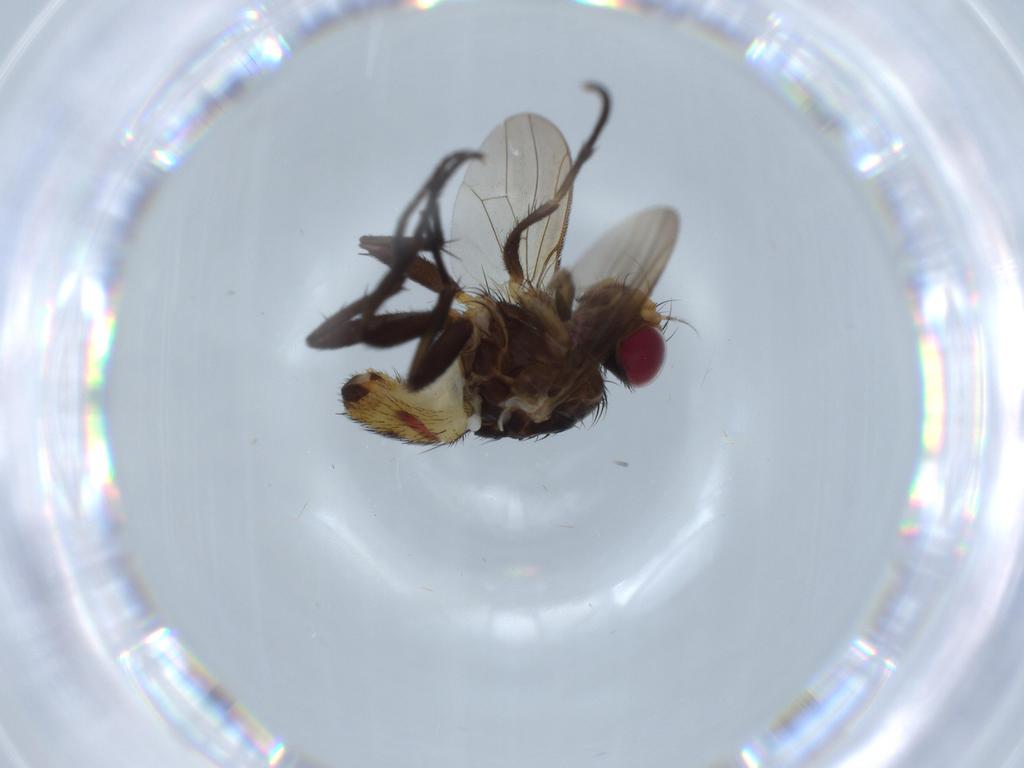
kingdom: Animalia
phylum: Arthropoda
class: Insecta
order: Diptera
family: Anthomyiidae
